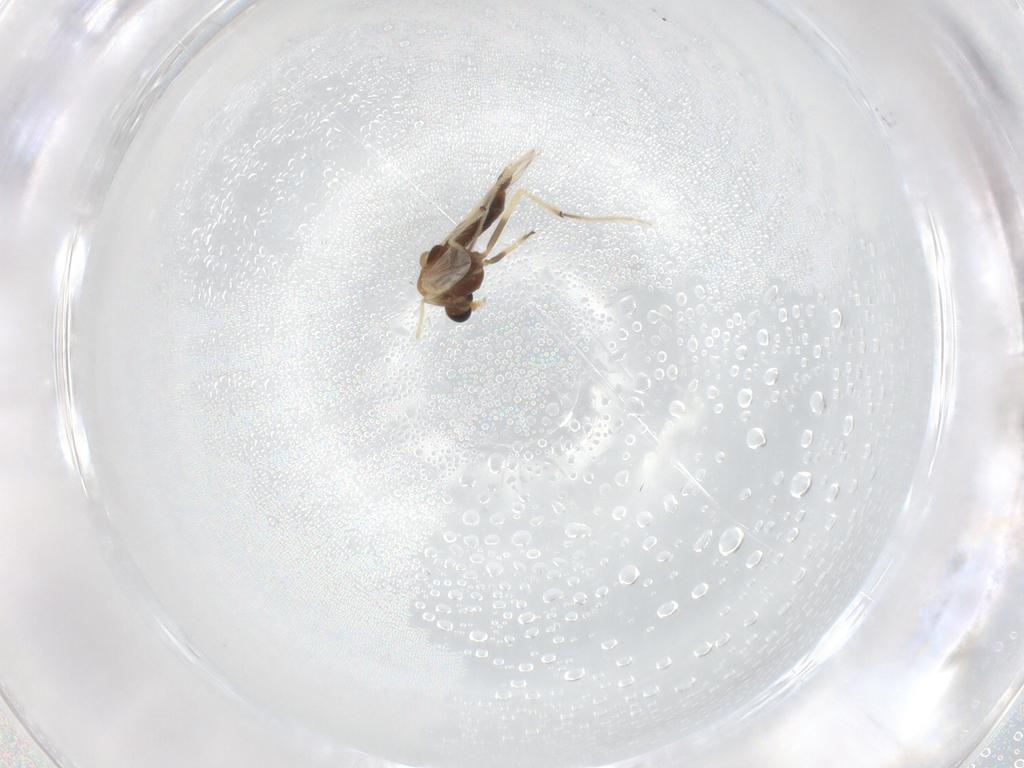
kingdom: Animalia
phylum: Arthropoda
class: Insecta
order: Diptera
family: Chironomidae
